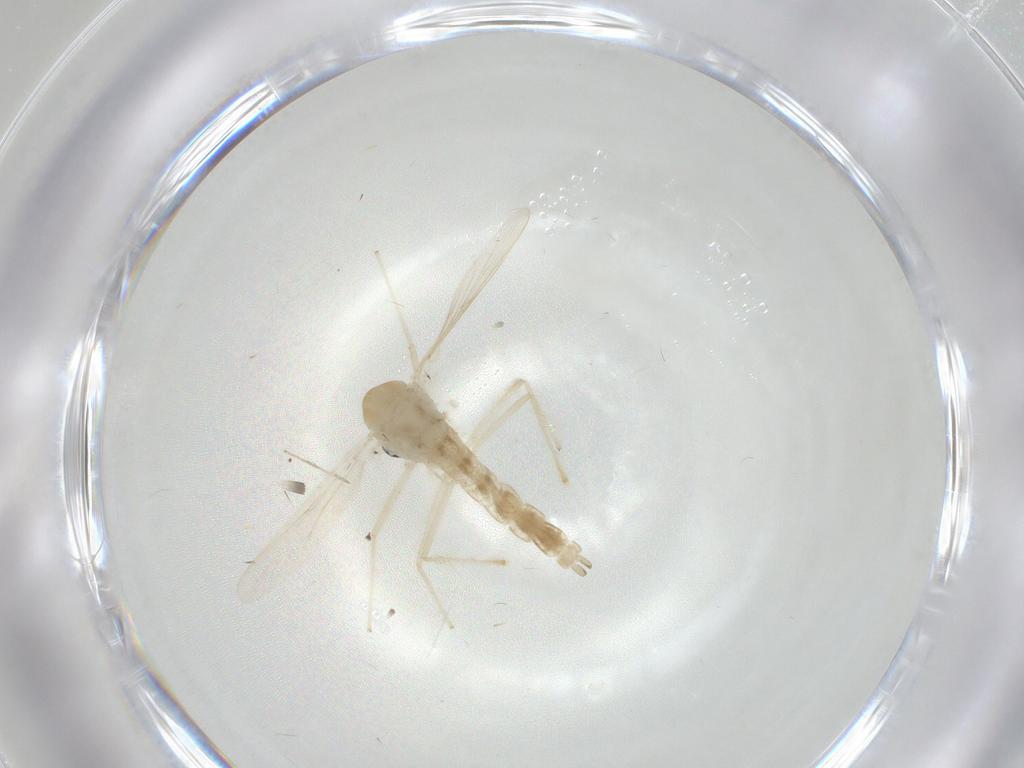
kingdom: Animalia
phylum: Arthropoda
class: Insecta
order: Diptera
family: Chironomidae
